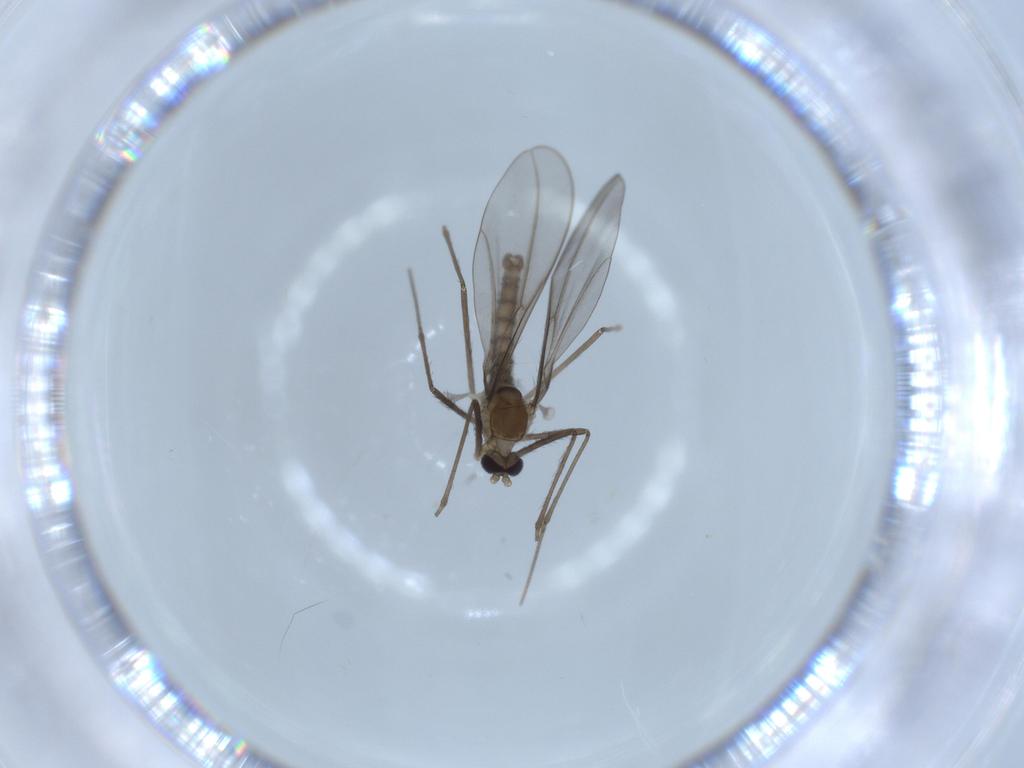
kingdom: Animalia
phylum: Arthropoda
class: Insecta
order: Diptera
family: Cecidomyiidae
